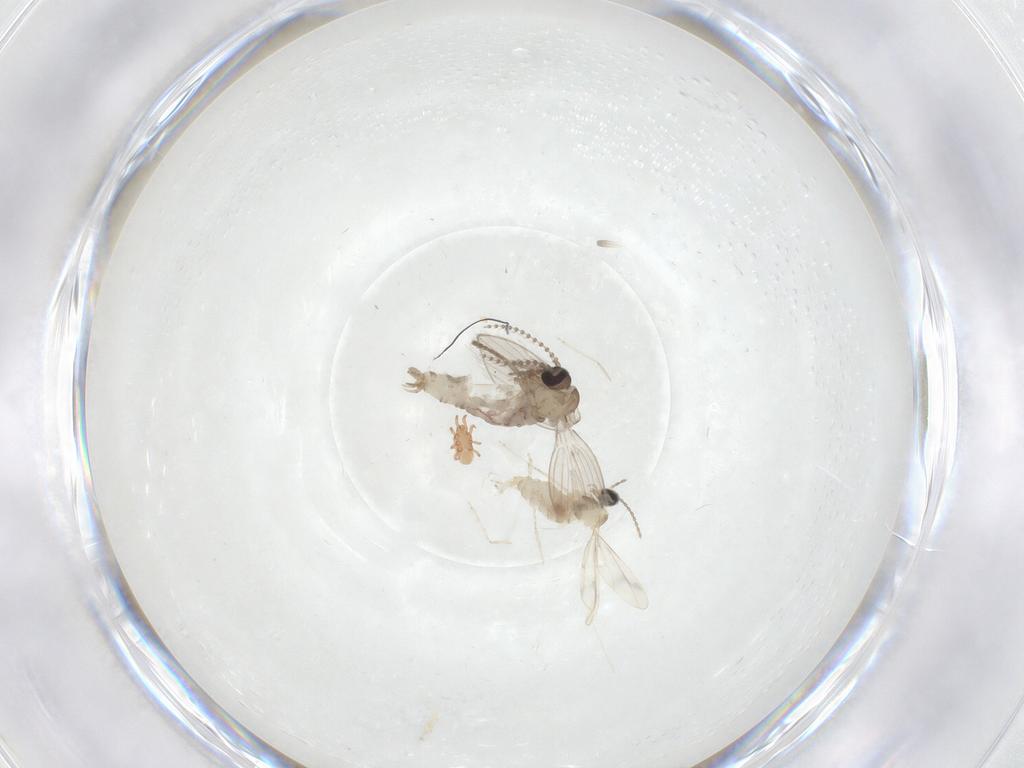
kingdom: Animalia
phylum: Arthropoda
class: Insecta
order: Diptera
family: Psychodidae
